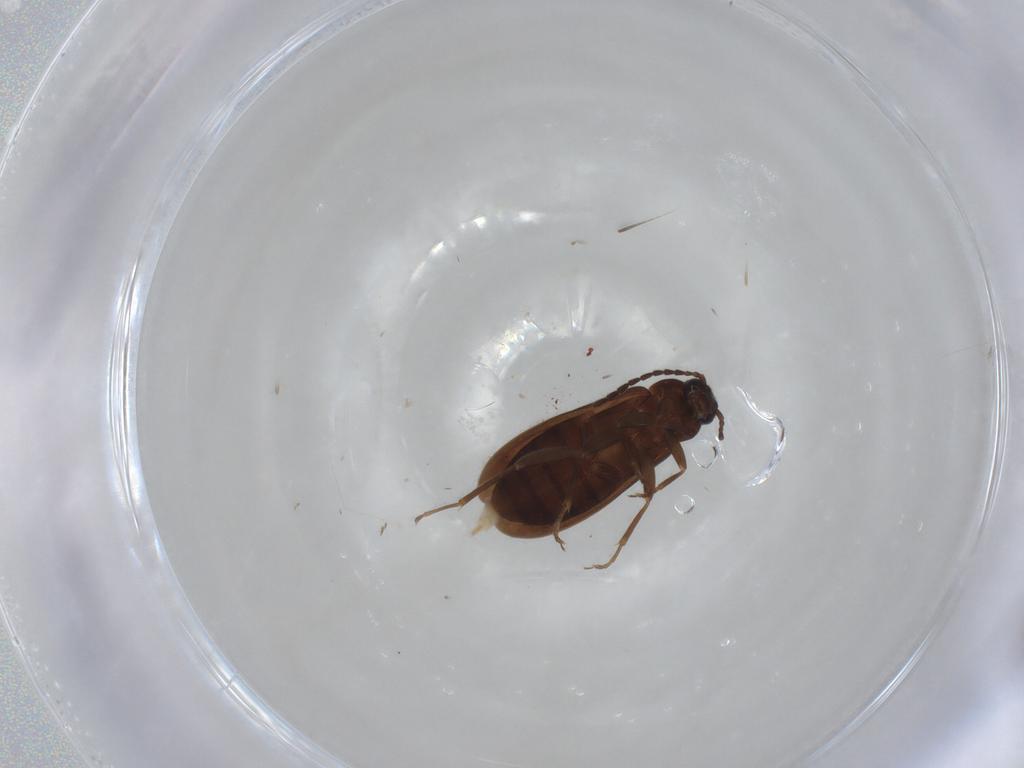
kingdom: Animalia
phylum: Arthropoda
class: Insecta
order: Coleoptera
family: Scraptiidae
